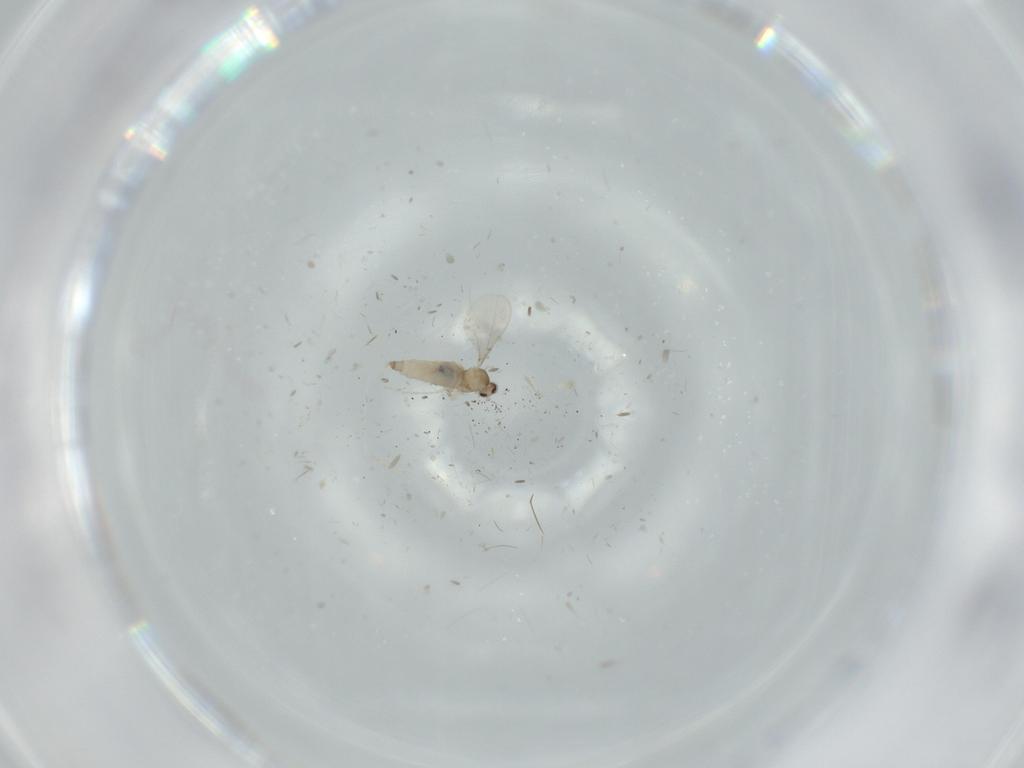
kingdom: Animalia
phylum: Arthropoda
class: Insecta
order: Diptera
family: Cecidomyiidae
